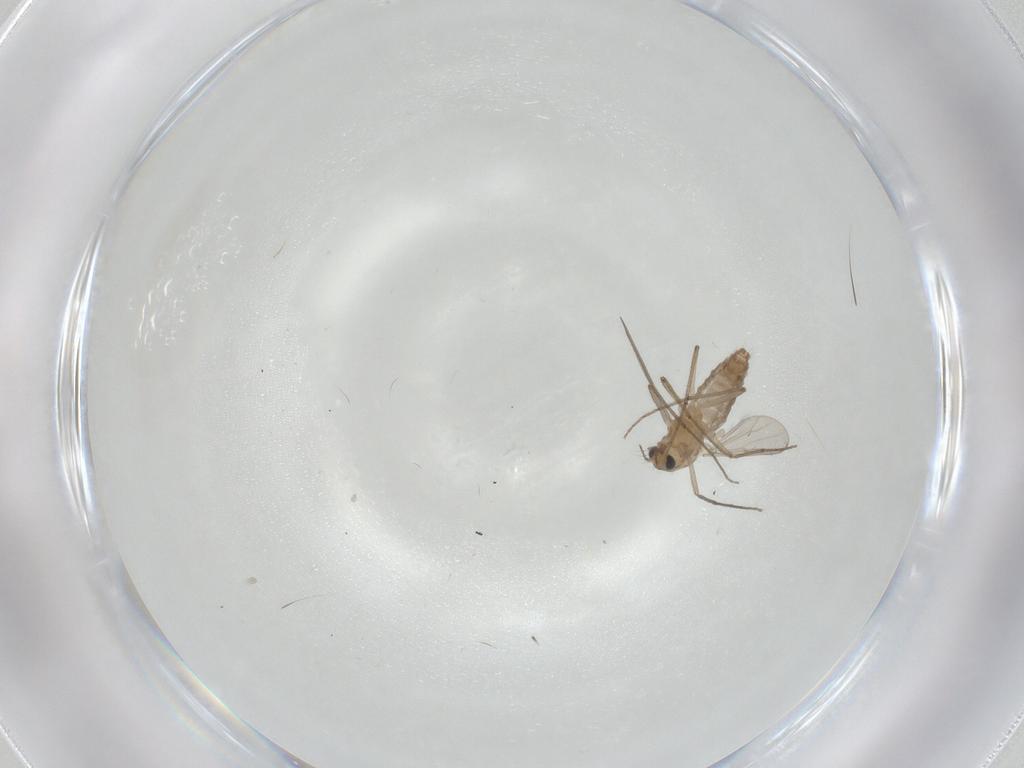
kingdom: Animalia
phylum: Arthropoda
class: Insecta
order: Diptera
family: Chironomidae
